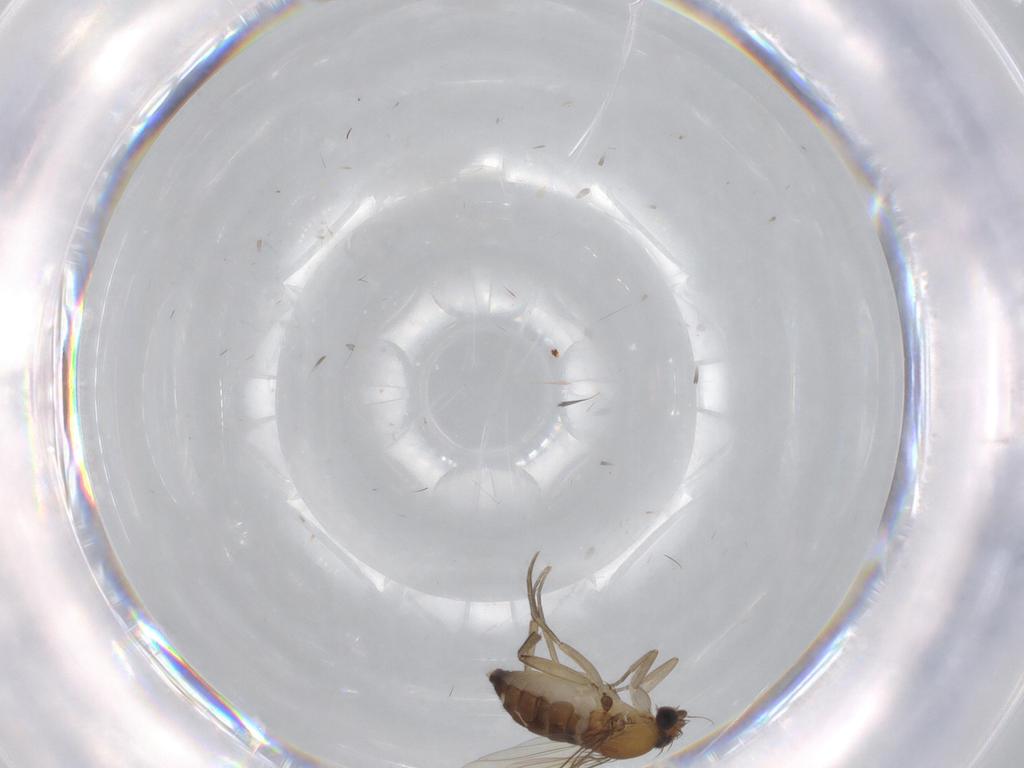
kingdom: Animalia
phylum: Arthropoda
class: Insecta
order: Diptera
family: Phoridae
